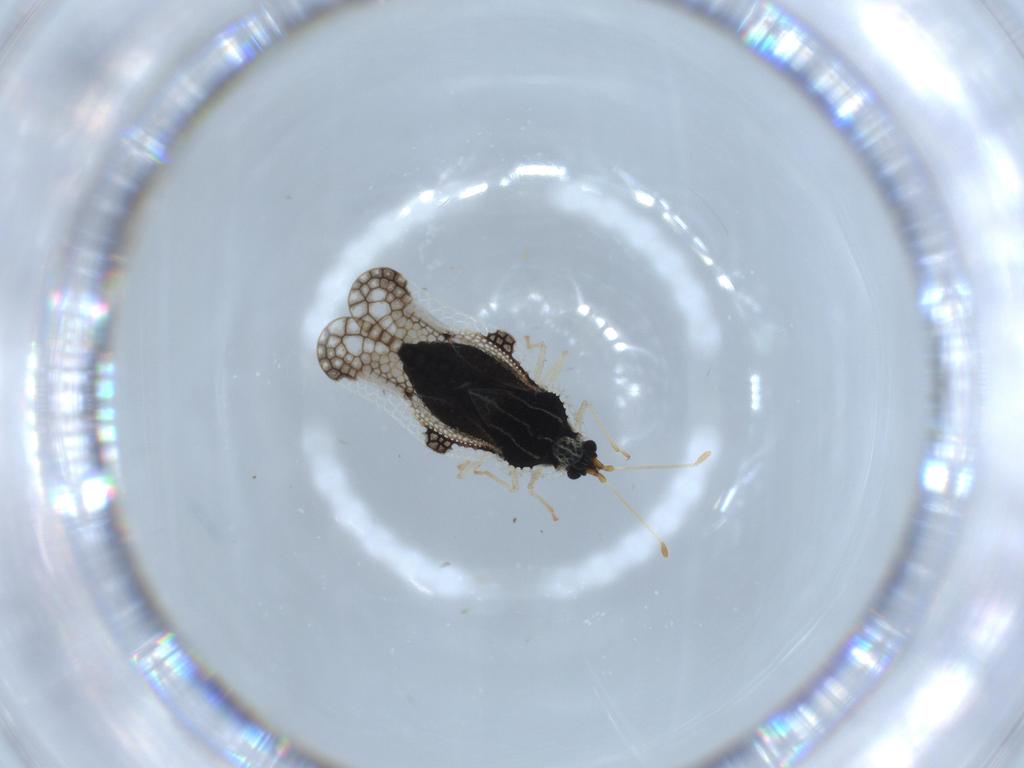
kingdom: Animalia
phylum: Arthropoda
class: Insecta
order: Hemiptera
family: Tingidae
